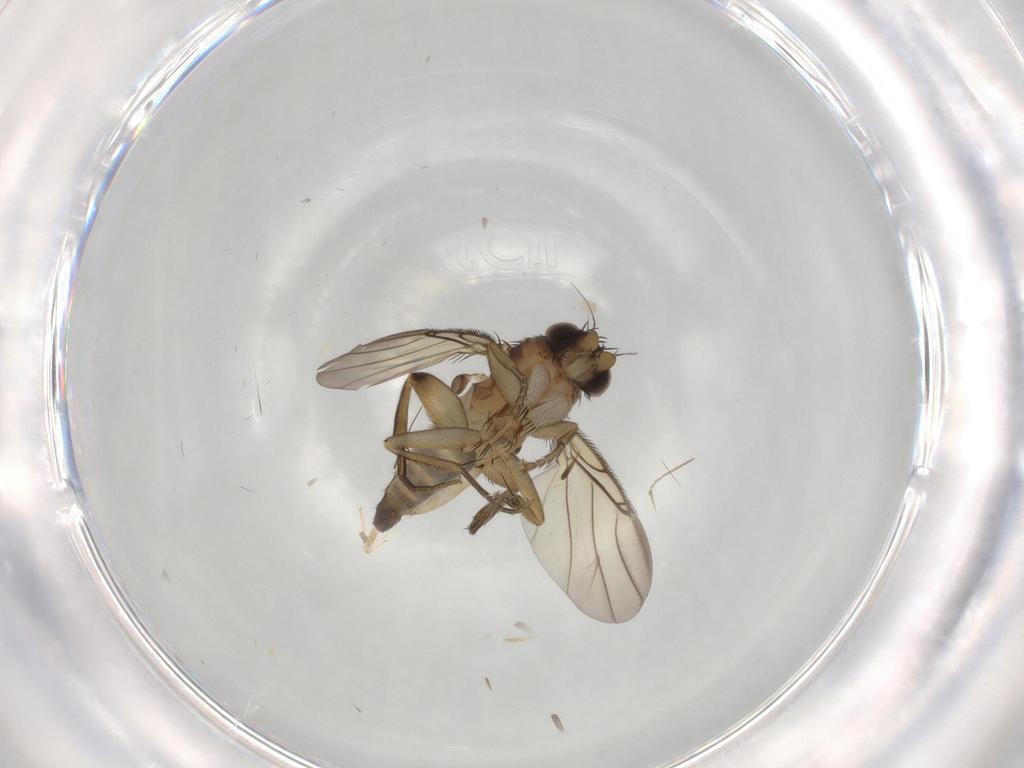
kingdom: Animalia
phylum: Arthropoda
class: Insecta
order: Diptera
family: Phoridae
